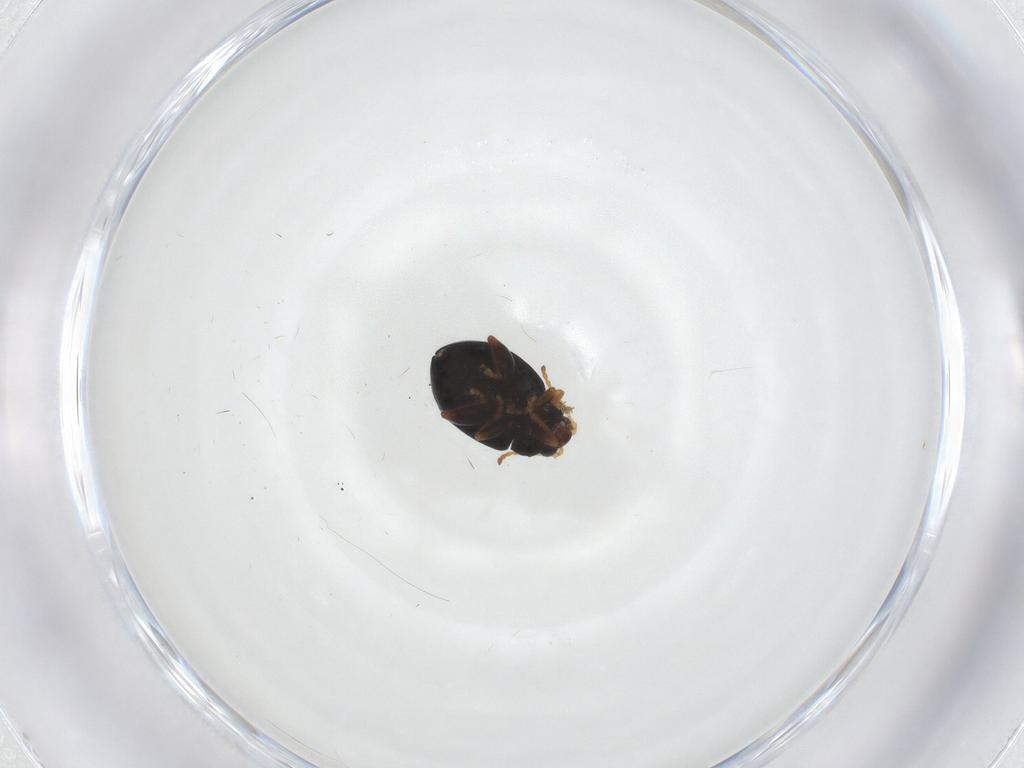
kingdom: Animalia
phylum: Arthropoda
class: Insecta
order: Coleoptera
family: Chrysomelidae
